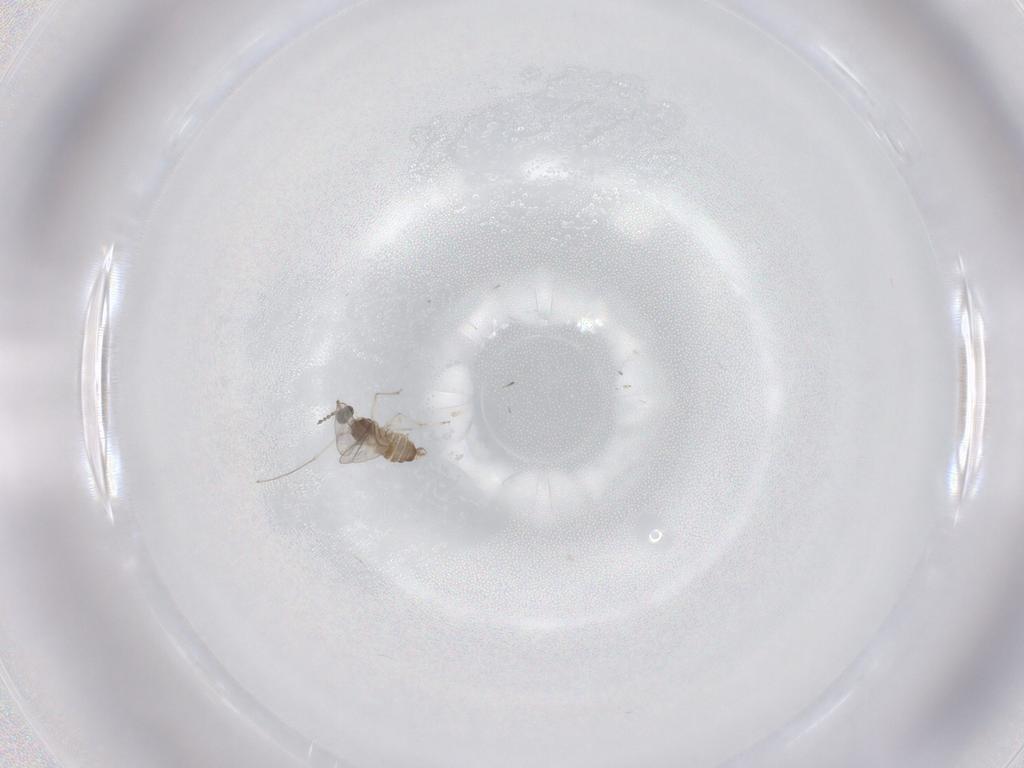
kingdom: Animalia
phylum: Arthropoda
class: Insecta
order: Diptera
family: Cecidomyiidae
